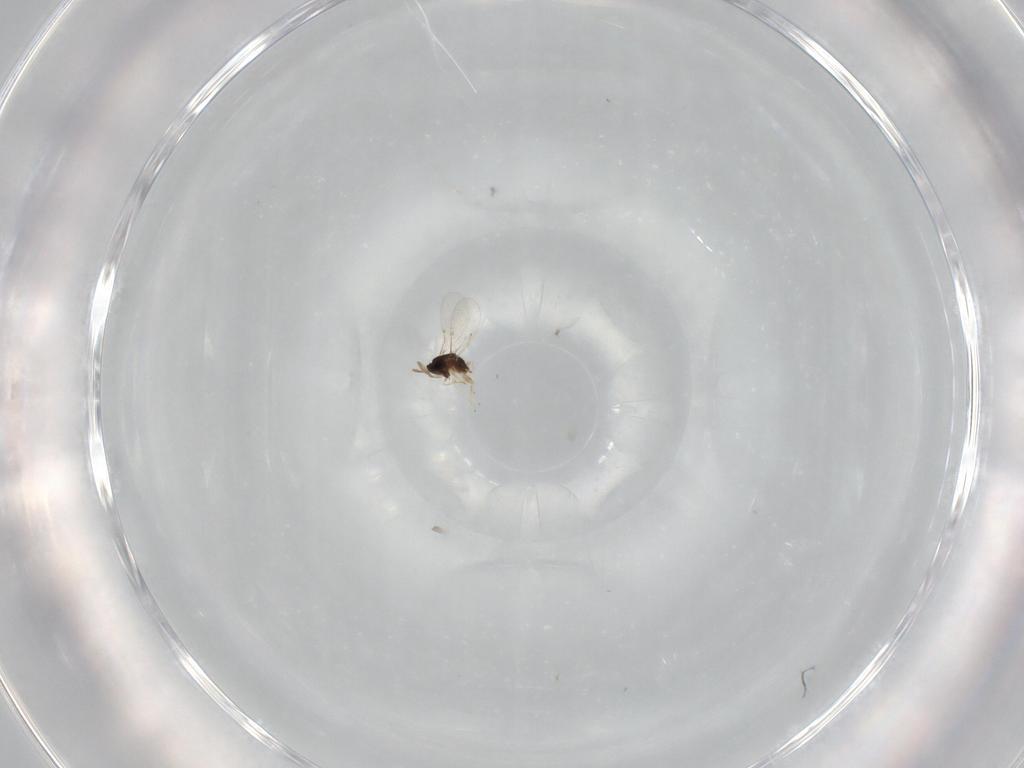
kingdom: Animalia
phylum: Arthropoda
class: Insecta
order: Hymenoptera
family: Encyrtidae
